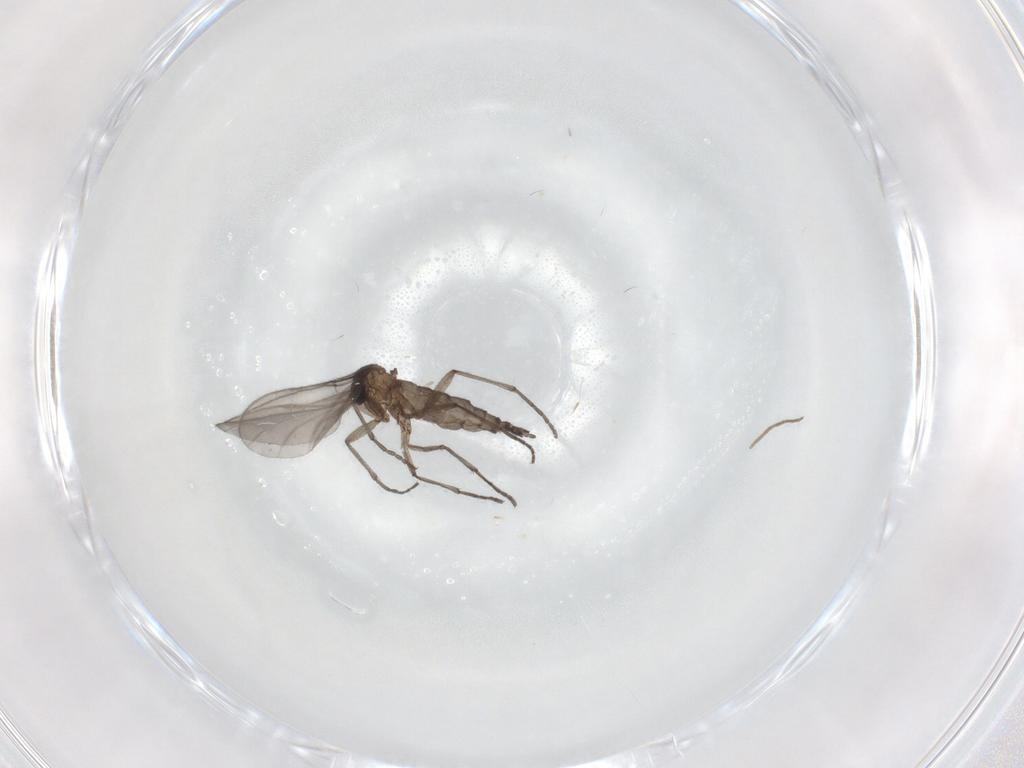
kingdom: Animalia
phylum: Arthropoda
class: Insecta
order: Diptera
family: Sciaridae
